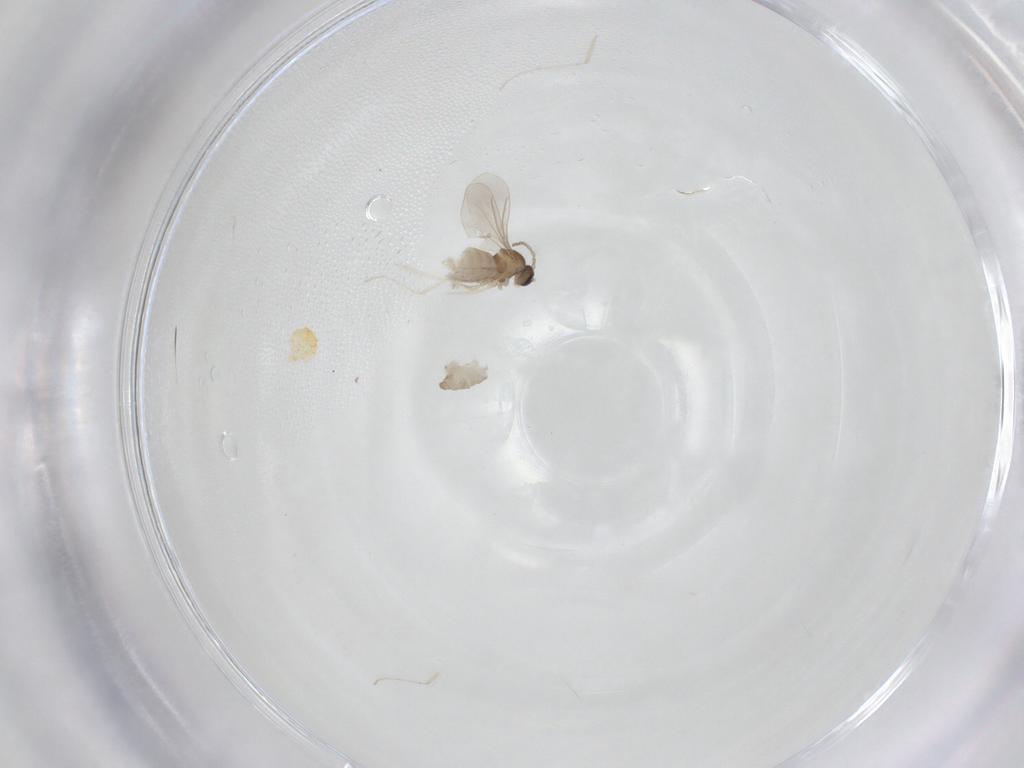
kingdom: Animalia
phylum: Arthropoda
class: Insecta
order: Diptera
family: Cecidomyiidae
